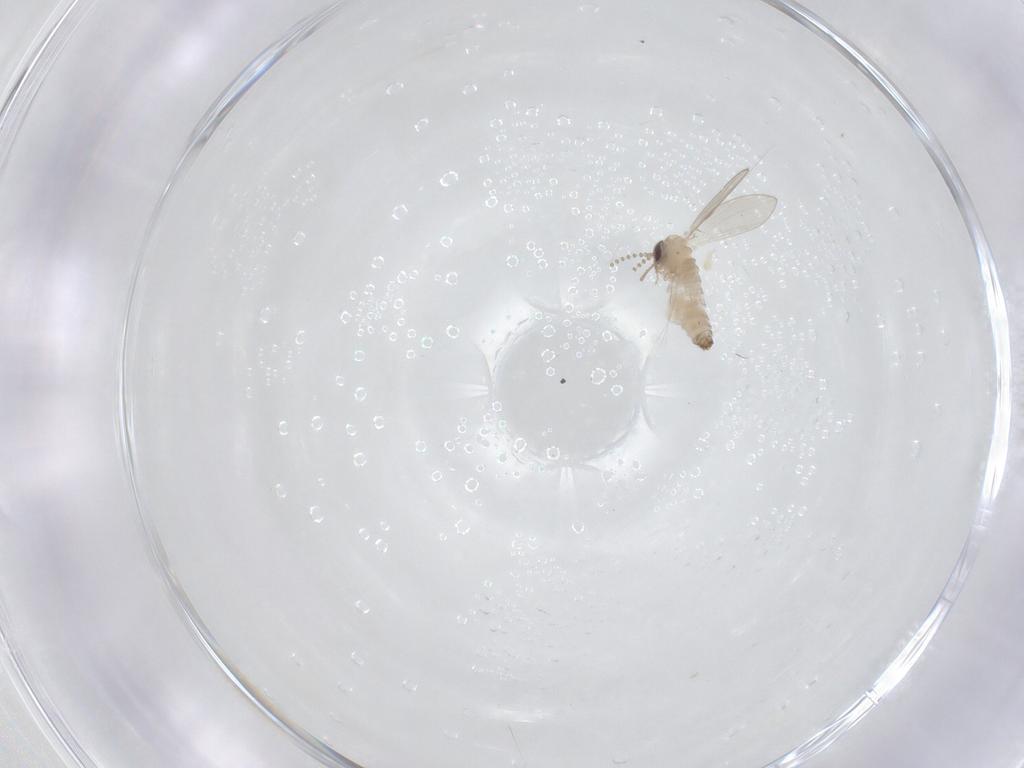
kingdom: Animalia
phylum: Arthropoda
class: Insecta
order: Diptera
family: Psychodidae
